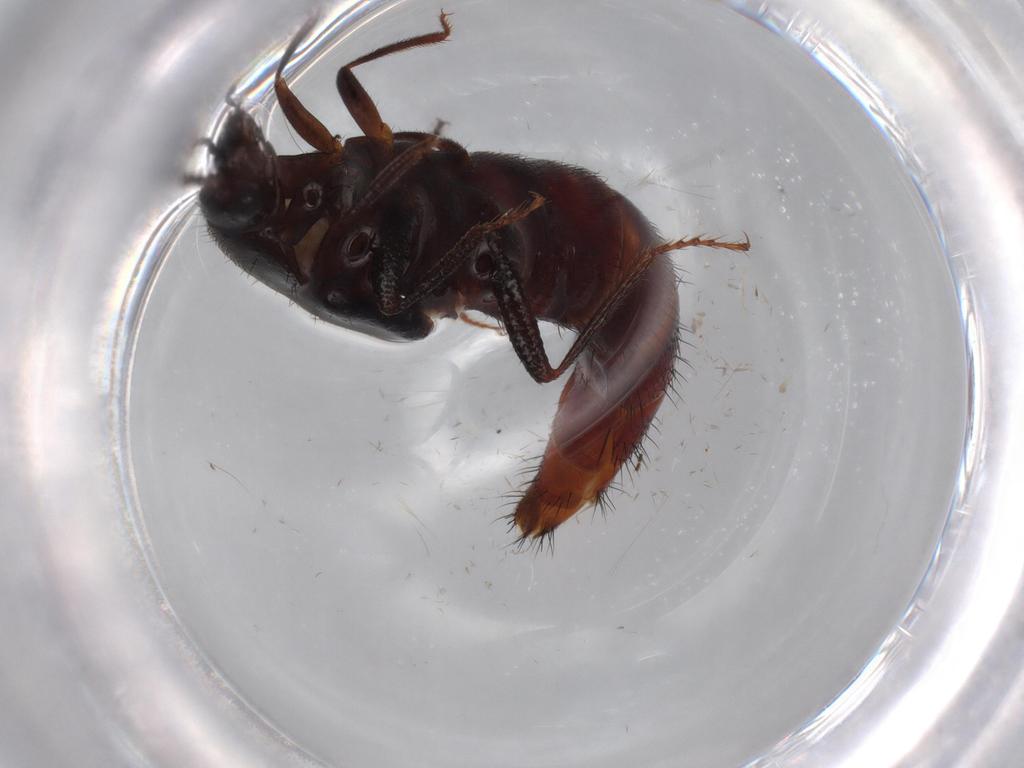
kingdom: Animalia
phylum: Arthropoda
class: Insecta
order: Coleoptera
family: Staphylinidae
